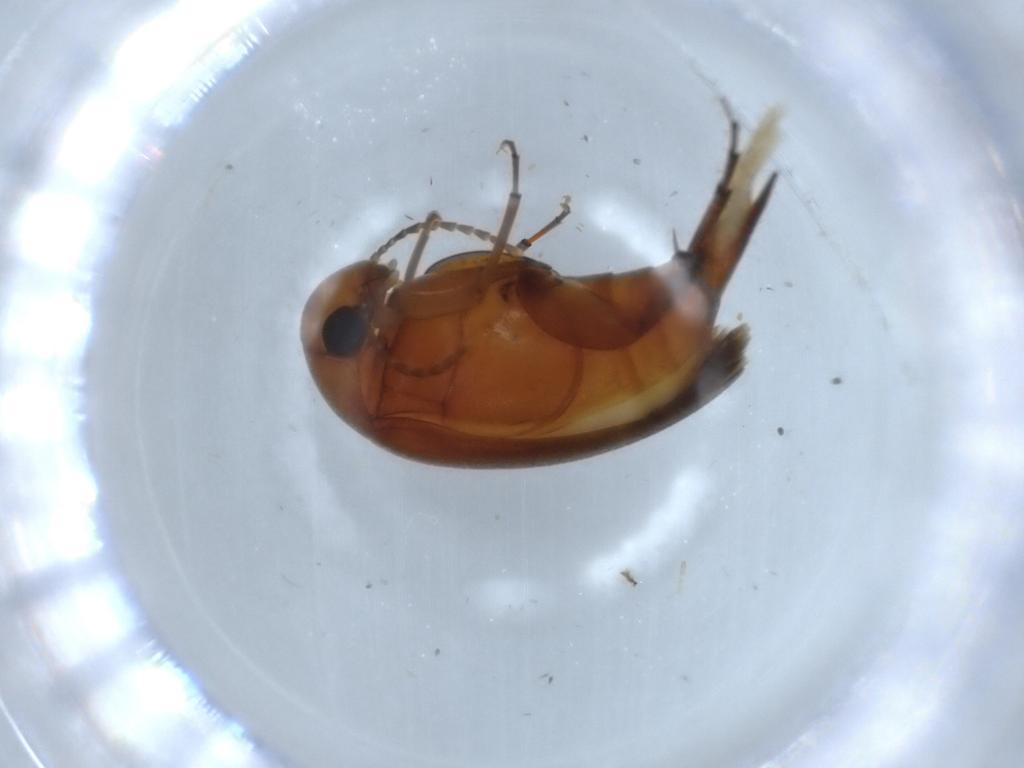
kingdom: Animalia
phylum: Arthropoda
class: Insecta
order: Coleoptera
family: Mordellidae
